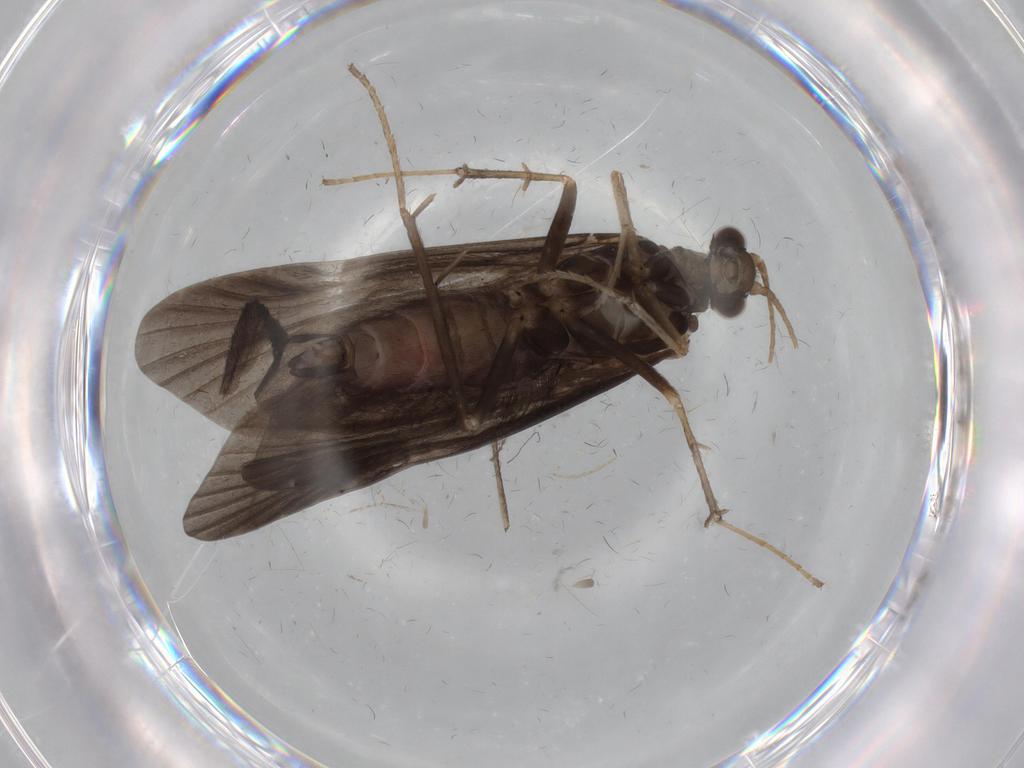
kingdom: Animalia
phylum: Arthropoda
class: Insecta
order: Trichoptera
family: Hydropsychidae
